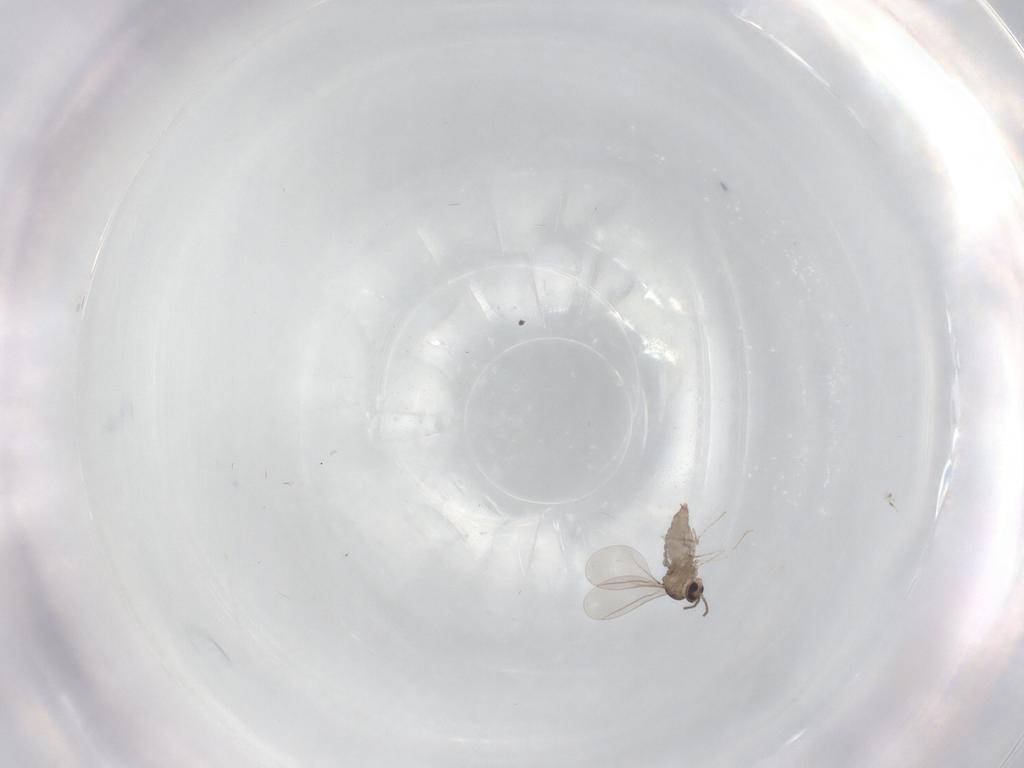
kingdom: Animalia
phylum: Arthropoda
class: Insecta
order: Diptera
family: Cecidomyiidae
